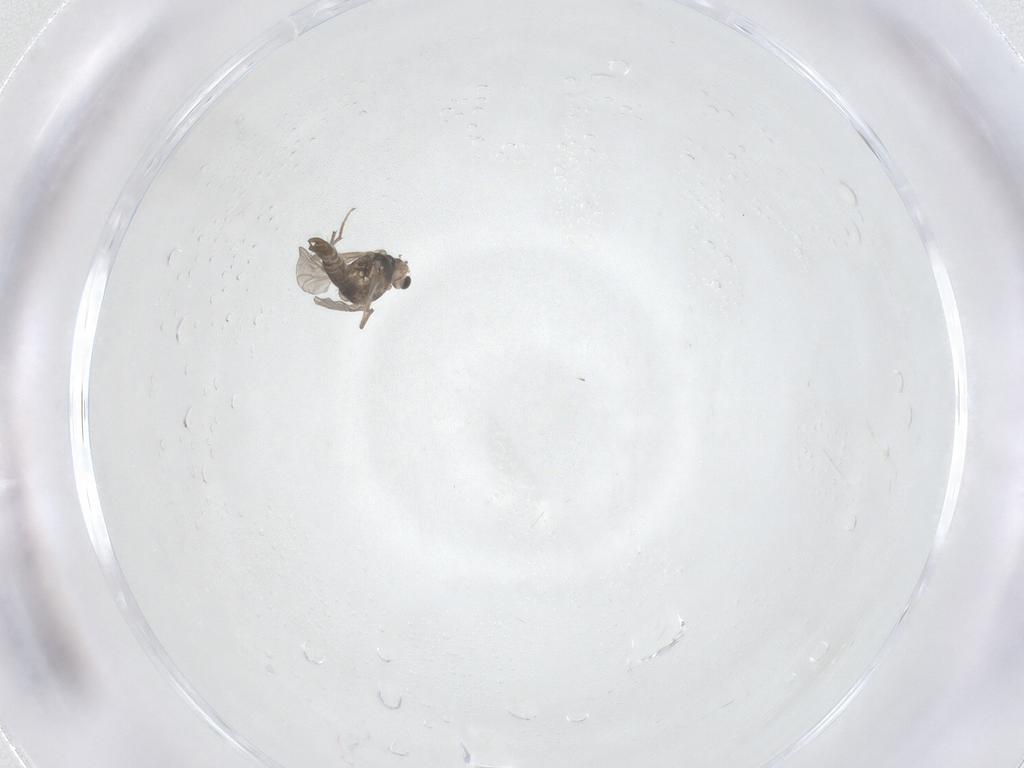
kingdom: Animalia
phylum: Arthropoda
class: Insecta
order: Diptera
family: Chironomidae
